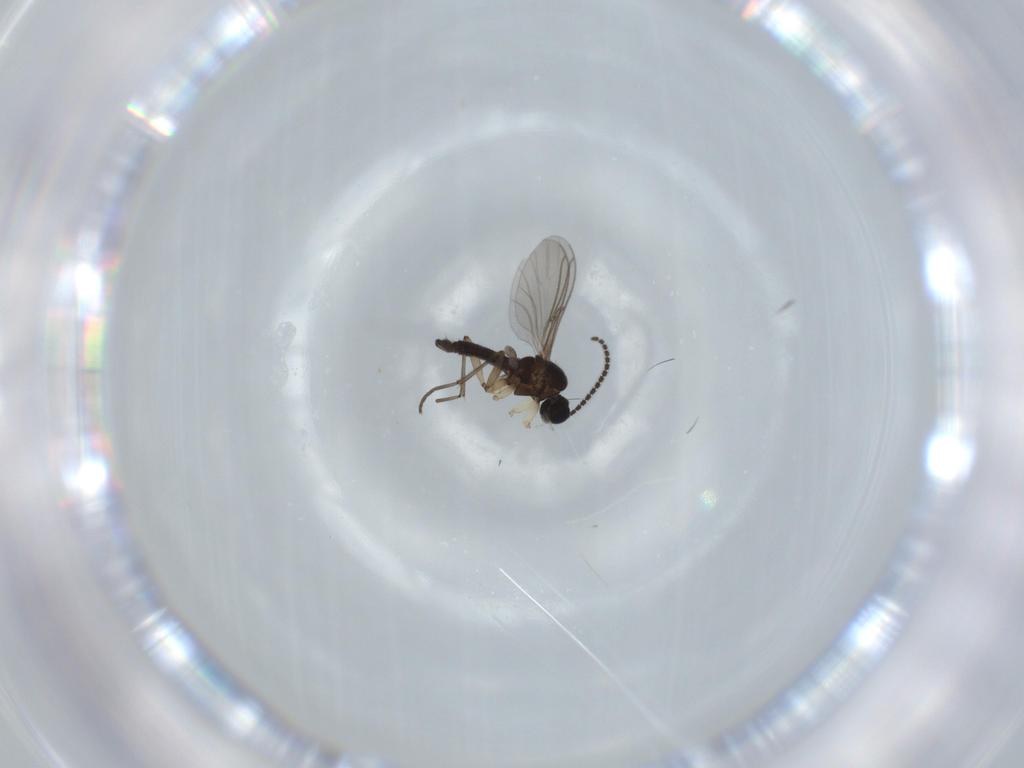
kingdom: Animalia
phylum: Arthropoda
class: Insecta
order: Diptera
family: Sciaridae
